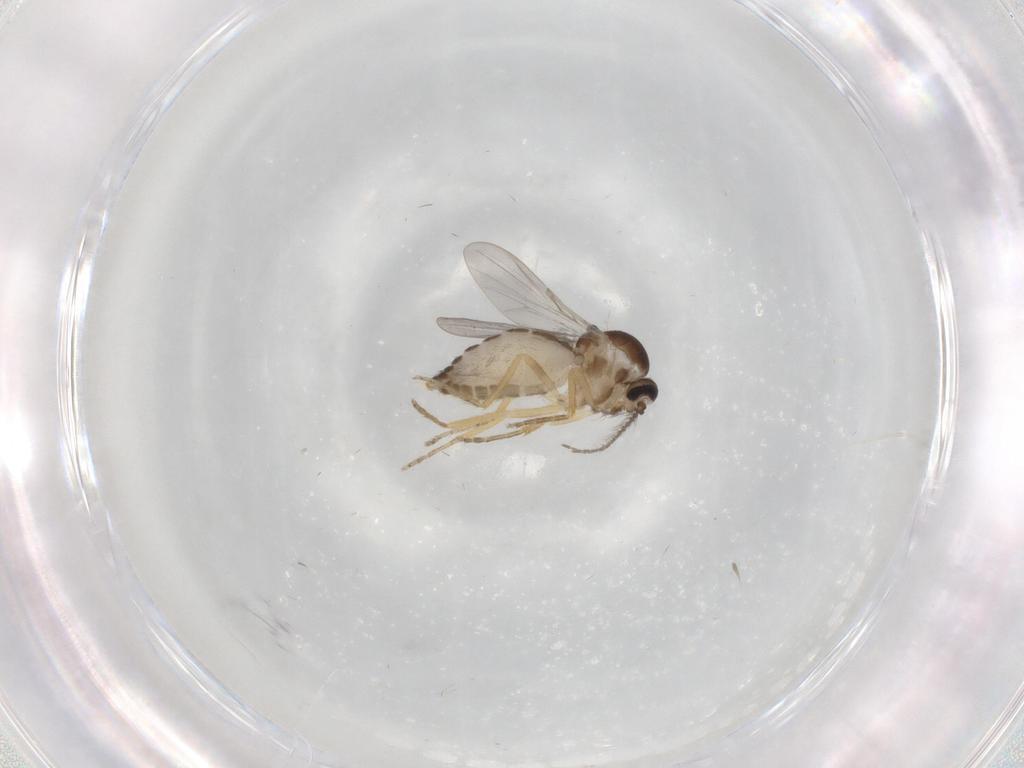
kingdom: Animalia
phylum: Arthropoda
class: Insecta
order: Diptera
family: Ceratopogonidae
